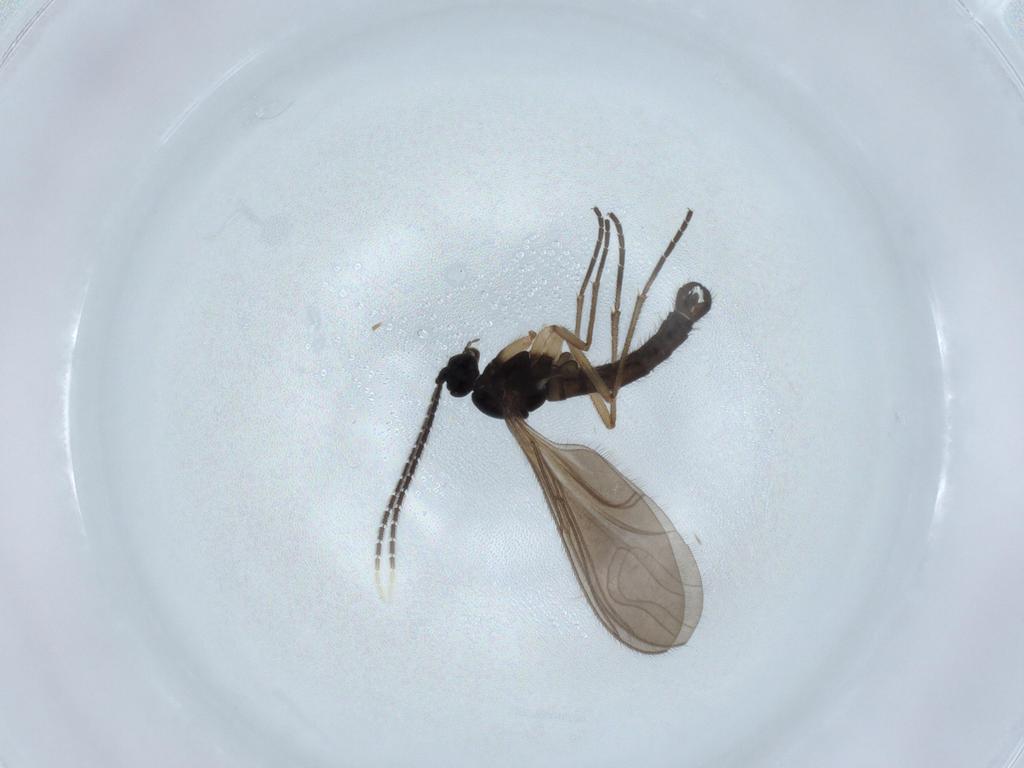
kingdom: Animalia
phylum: Arthropoda
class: Insecta
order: Diptera
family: Sciaridae
